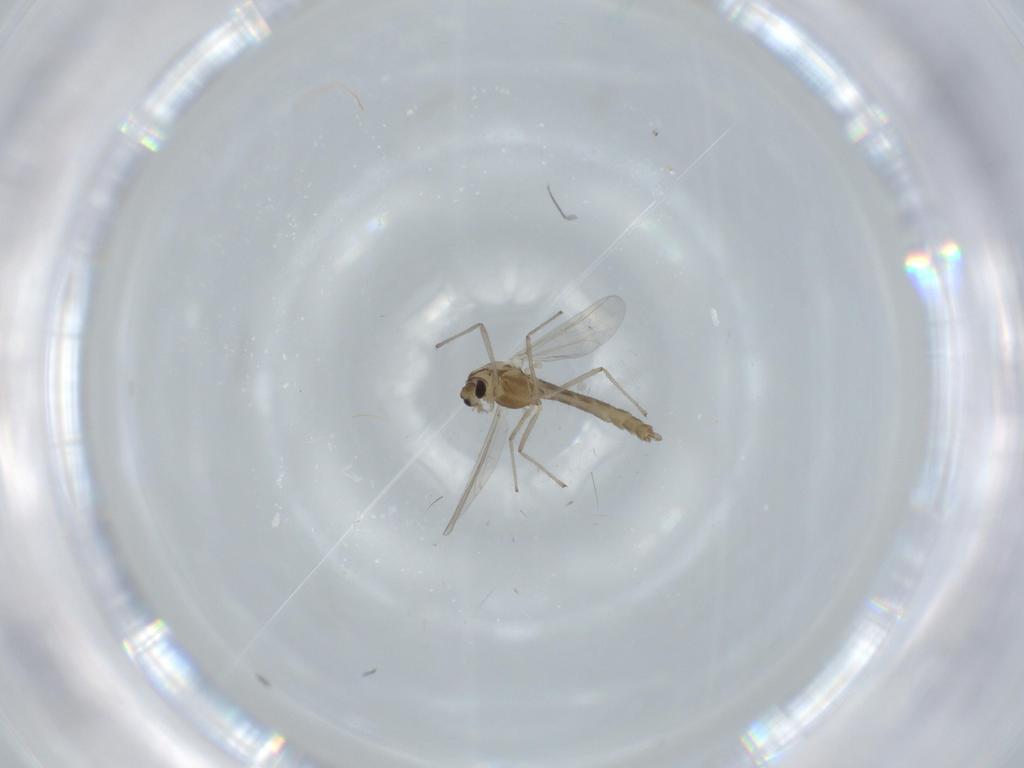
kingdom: Animalia
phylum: Arthropoda
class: Insecta
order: Diptera
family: Chironomidae
